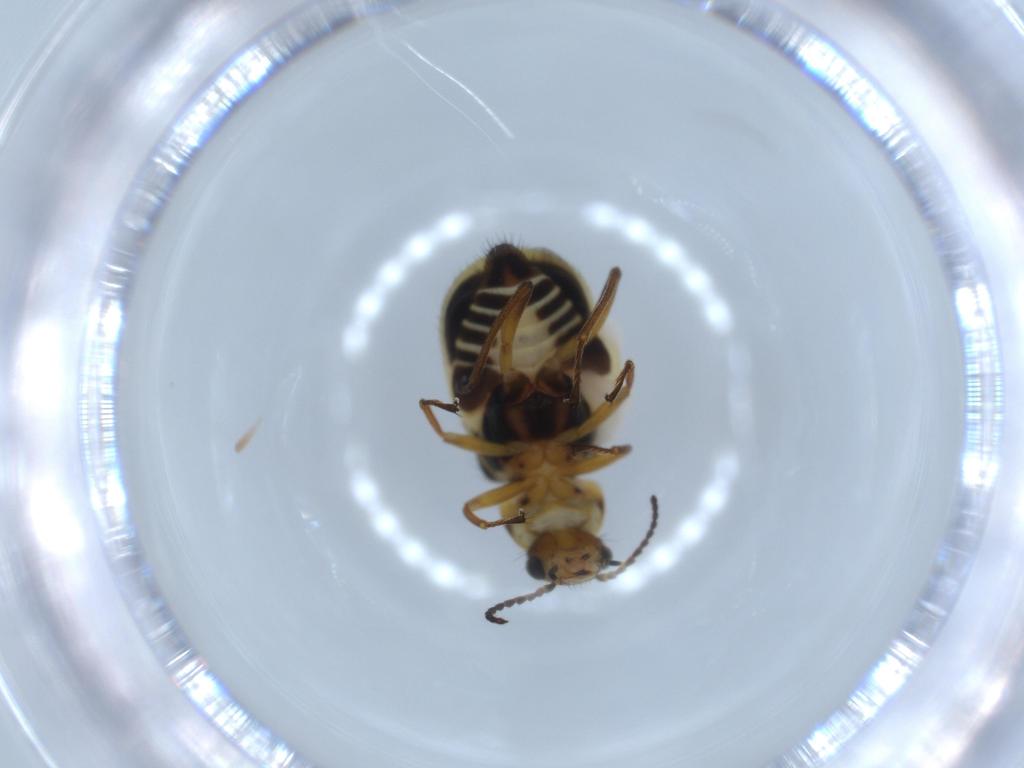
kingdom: Animalia
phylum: Arthropoda
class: Insecta
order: Coleoptera
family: Melyridae
